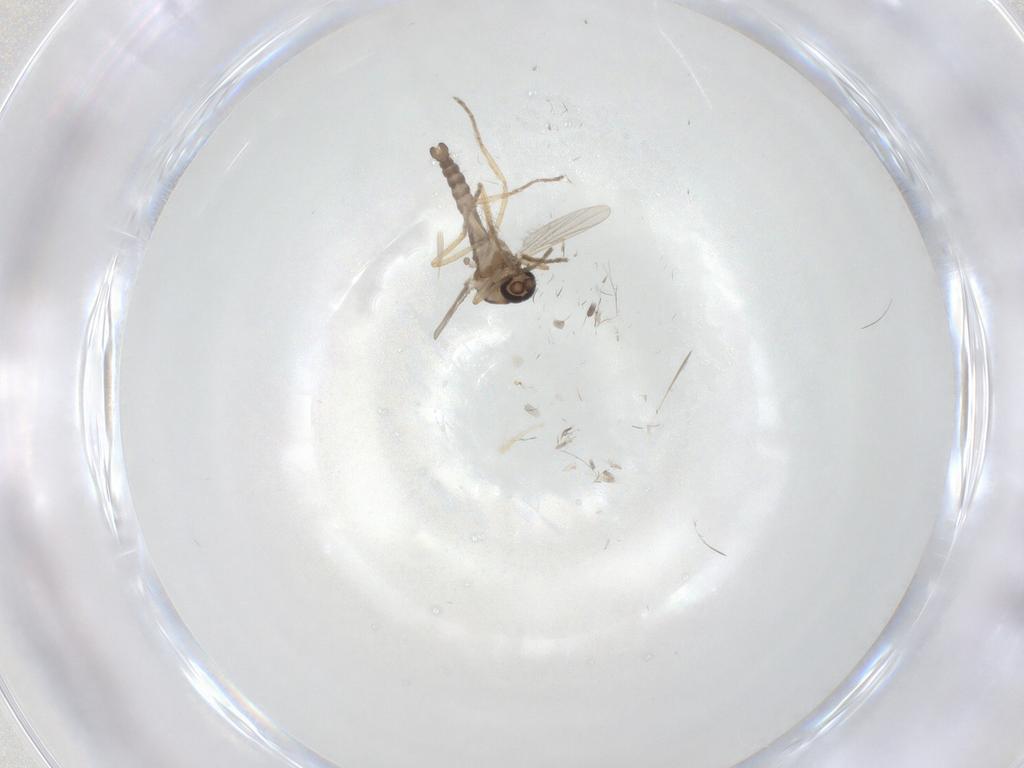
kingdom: Animalia
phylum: Arthropoda
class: Insecta
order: Diptera
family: Ceratopogonidae
